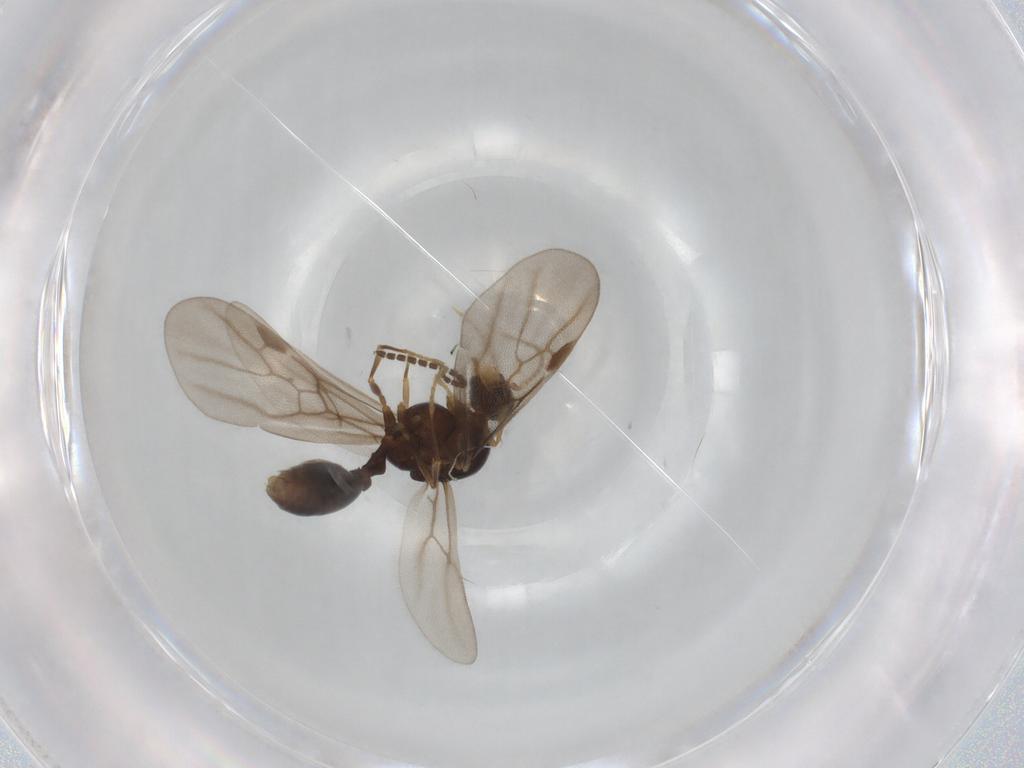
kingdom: Animalia
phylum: Arthropoda
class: Insecta
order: Hymenoptera
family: Formicidae
